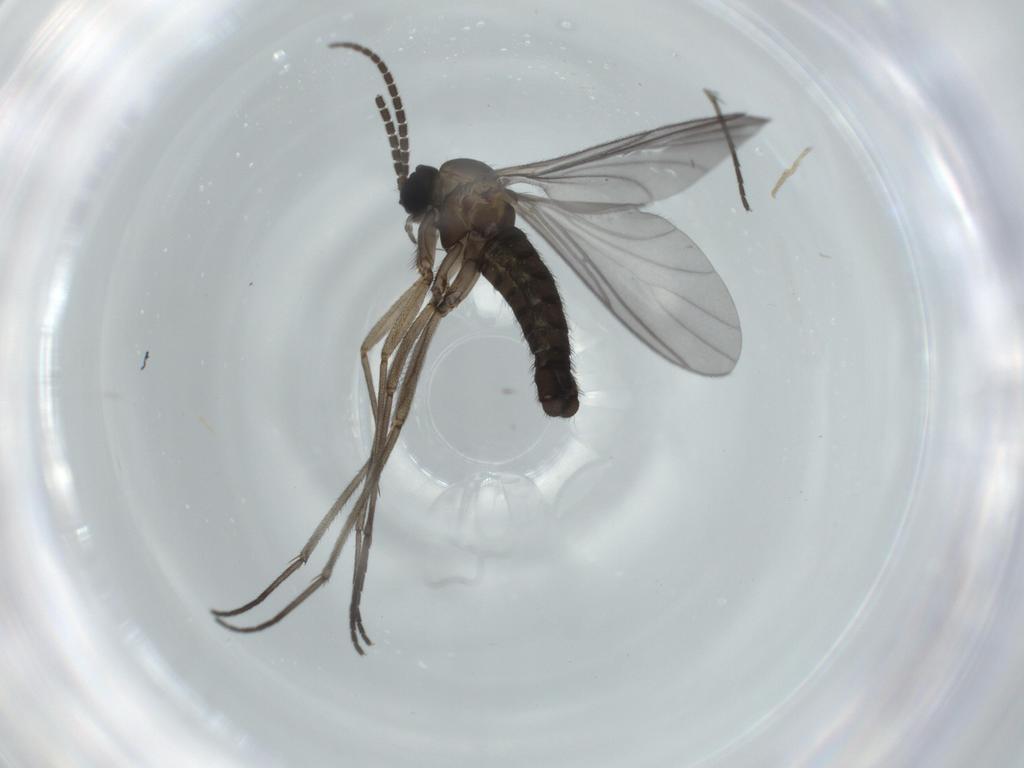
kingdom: Animalia
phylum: Arthropoda
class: Insecta
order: Diptera
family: Sciaridae
